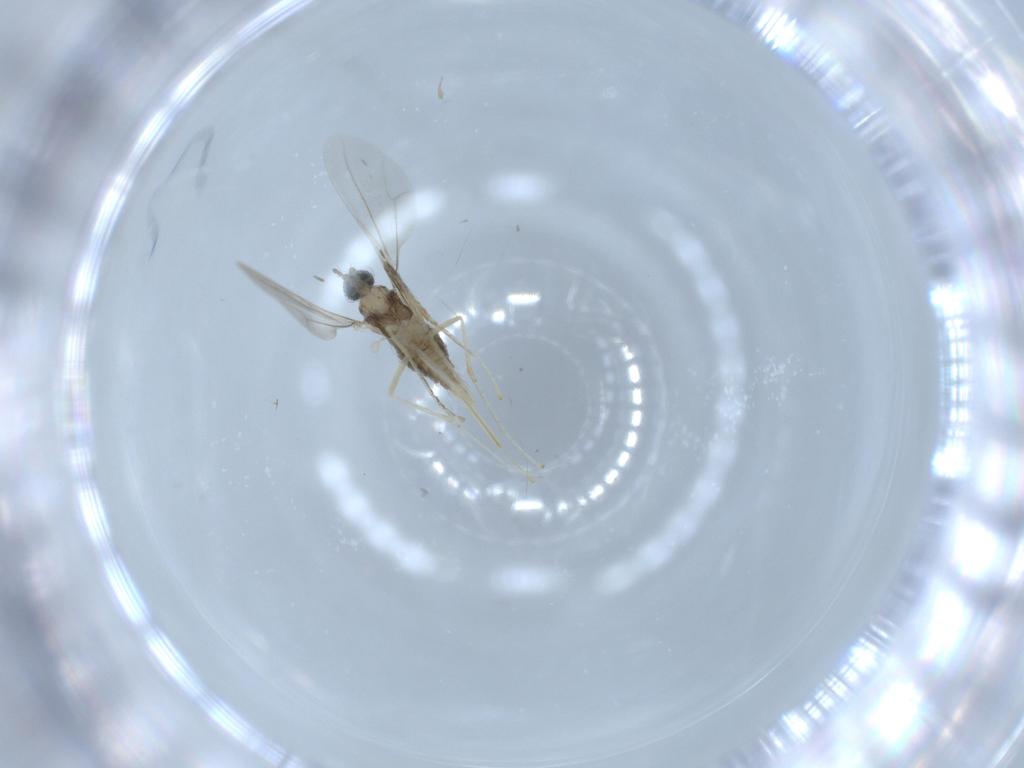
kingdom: Animalia
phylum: Arthropoda
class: Insecta
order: Diptera
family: Cecidomyiidae
